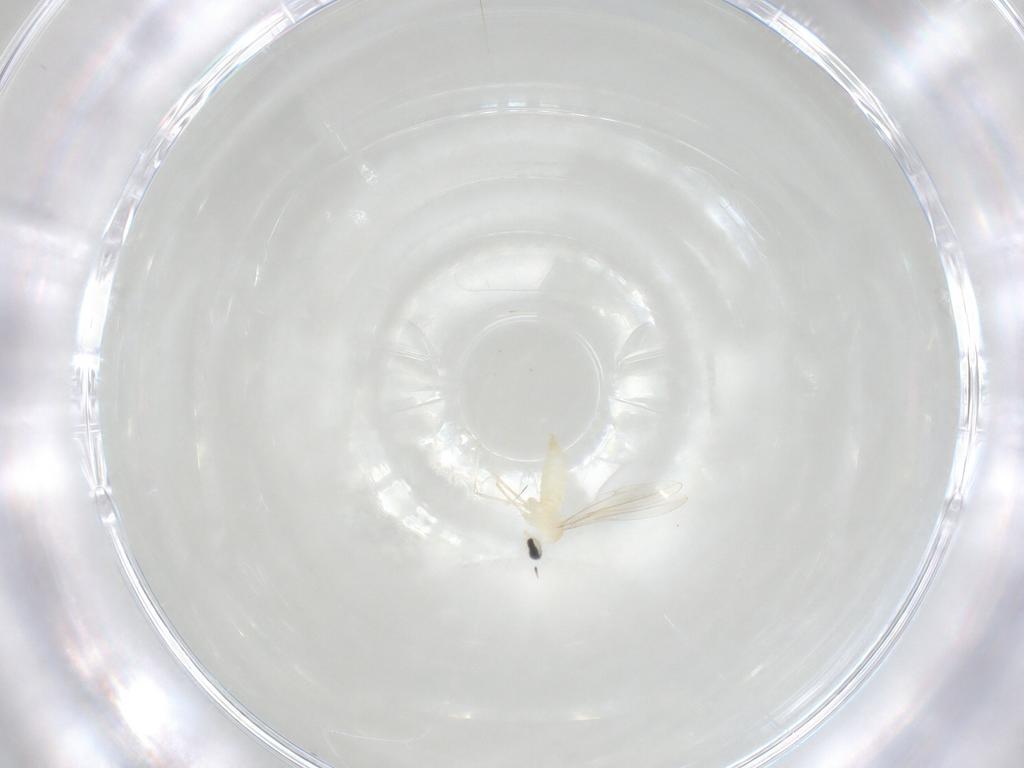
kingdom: Animalia
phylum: Arthropoda
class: Insecta
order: Diptera
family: Cecidomyiidae
